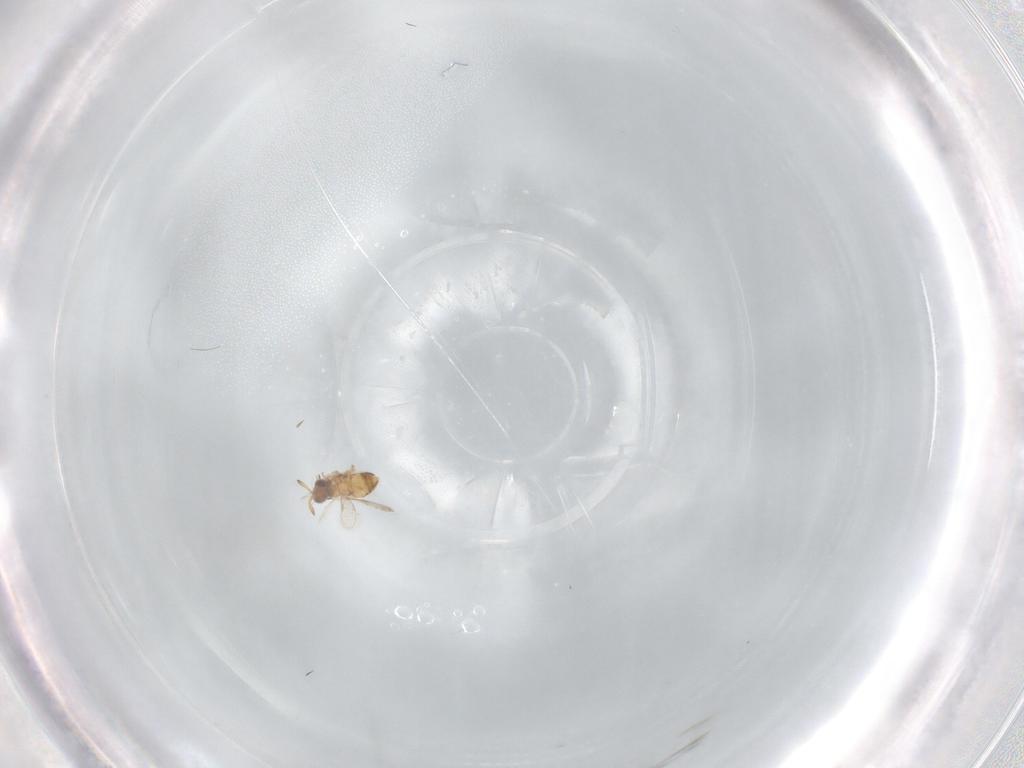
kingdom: Animalia
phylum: Arthropoda
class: Insecta
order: Hymenoptera
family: Aphelinidae
